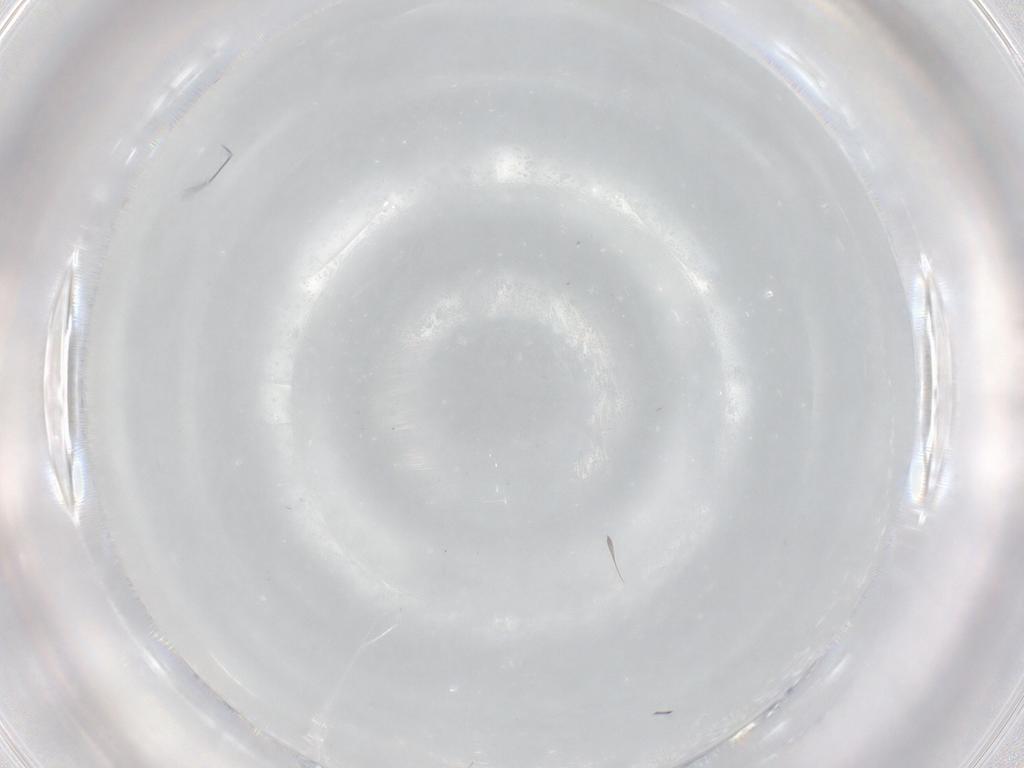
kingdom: Animalia
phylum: Arthropoda
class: Insecta
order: Diptera
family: Cecidomyiidae
